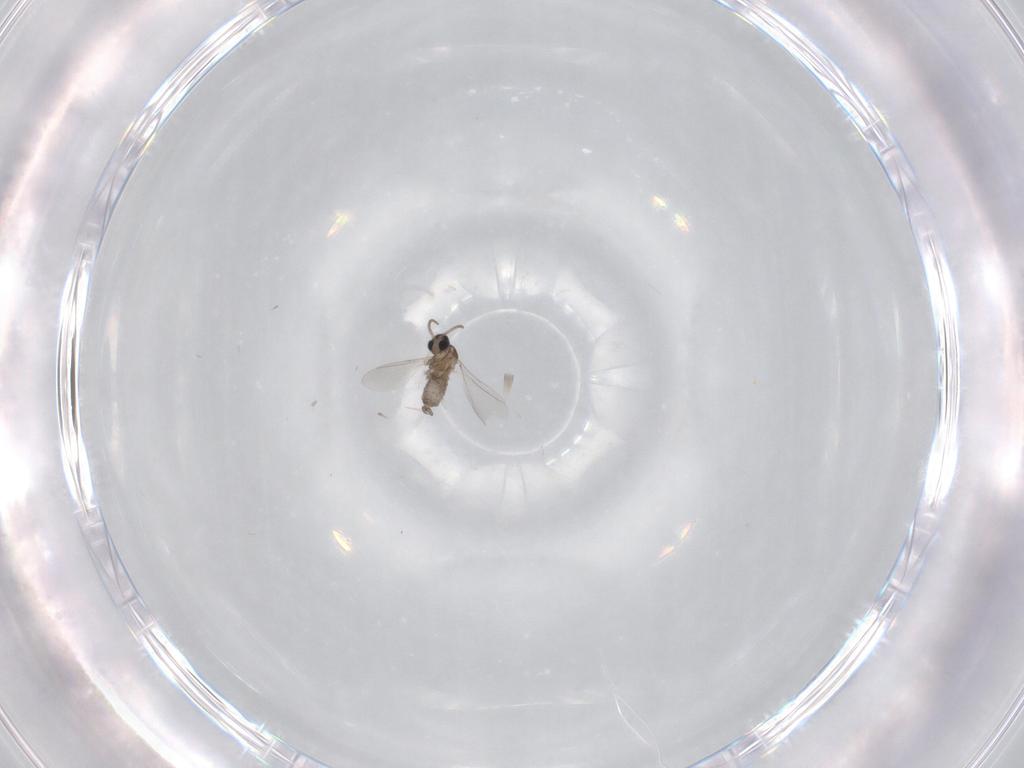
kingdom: Animalia
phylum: Arthropoda
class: Insecta
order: Diptera
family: Cecidomyiidae
